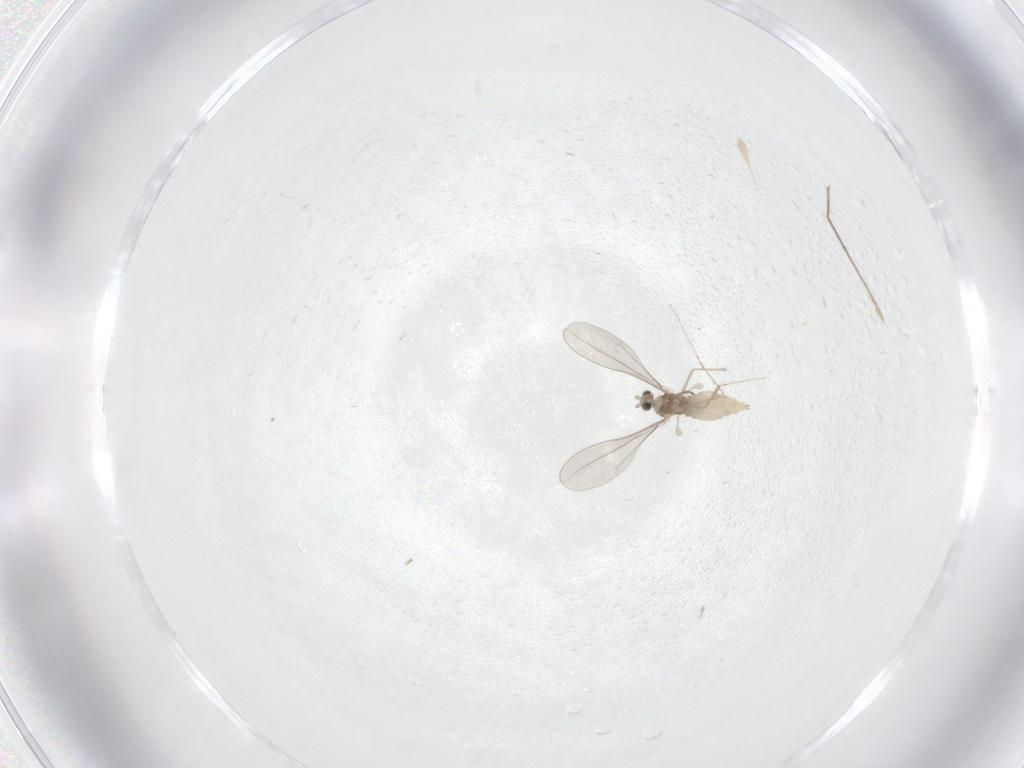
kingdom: Animalia
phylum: Arthropoda
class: Insecta
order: Diptera
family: Cecidomyiidae
